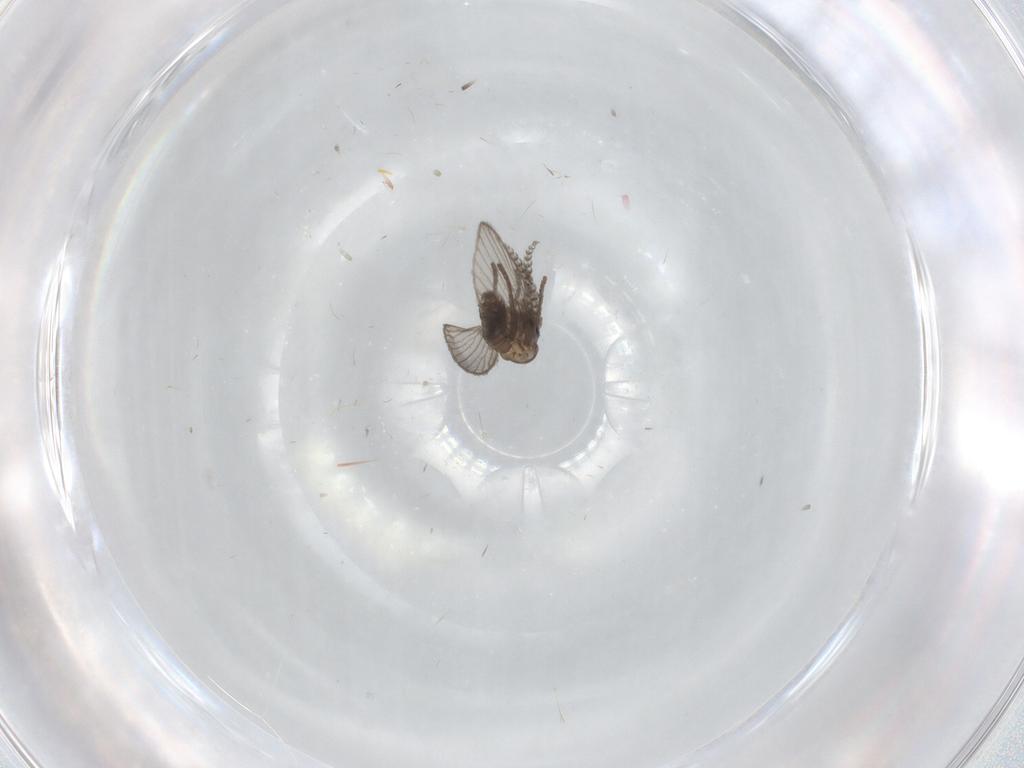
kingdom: Animalia
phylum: Arthropoda
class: Insecta
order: Diptera
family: Psychodidae
